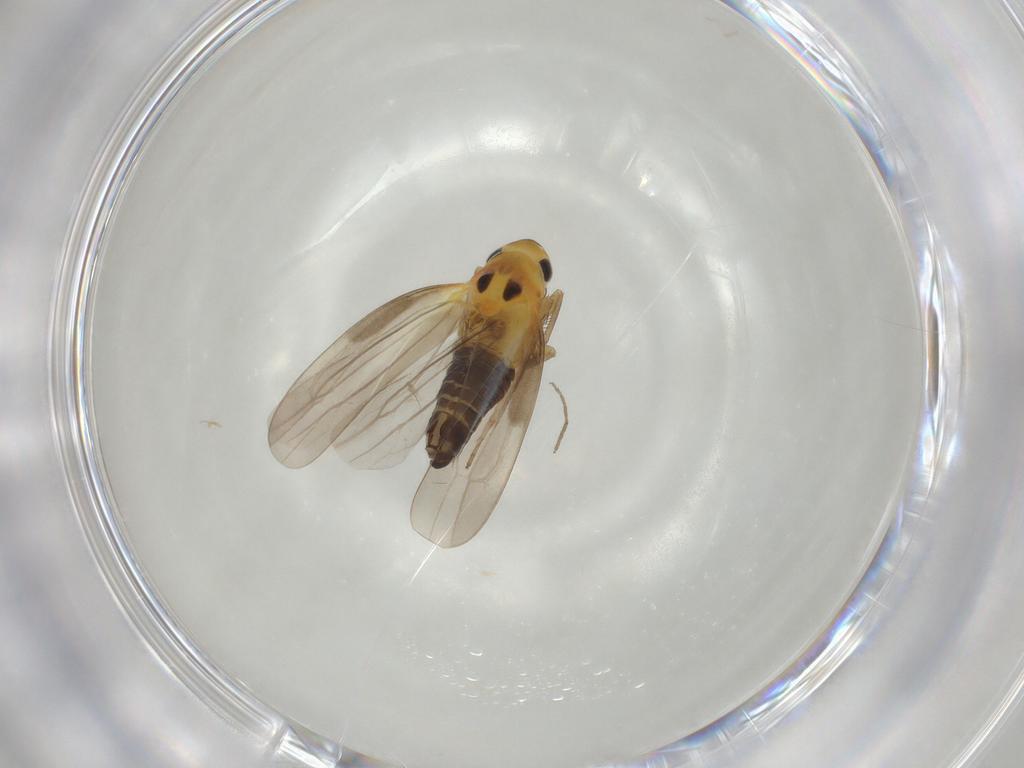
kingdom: Animalia
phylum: Arthropoda
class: Insecta
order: Hemiptera
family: Cicadellidae
